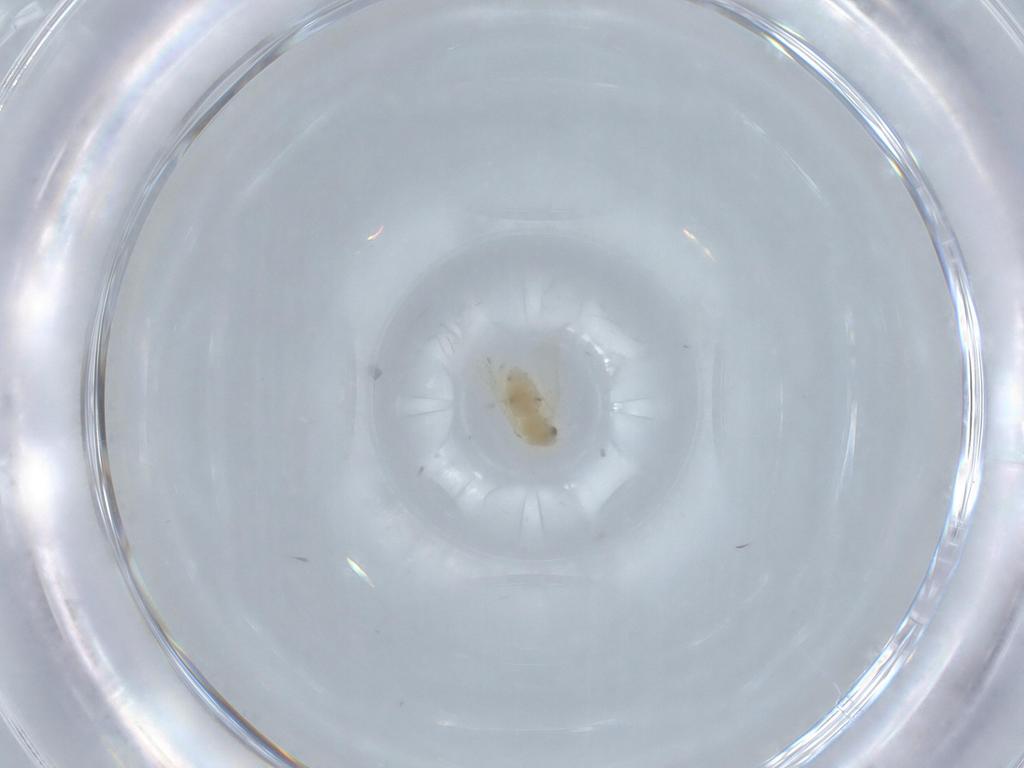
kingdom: Animalia
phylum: Arthropoda
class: Insecta
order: Hemiptera
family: Aleyrodidae
